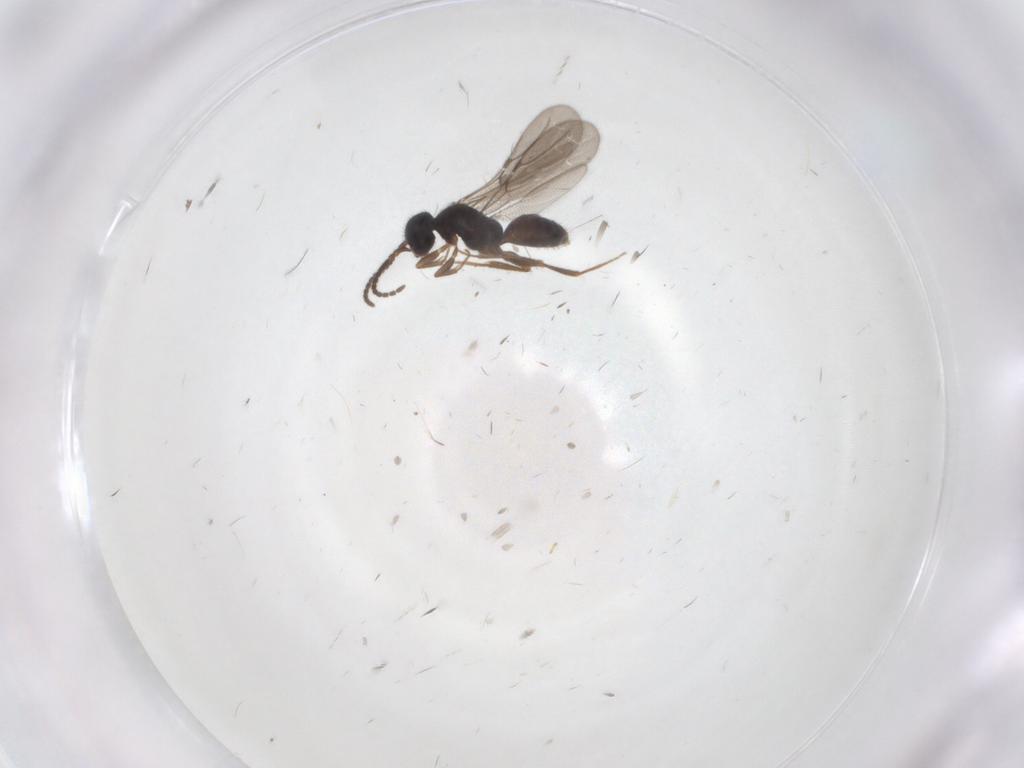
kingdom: Animalia
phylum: Arthropoda
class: Insecta
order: Hymenoptera
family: Bethylidae
